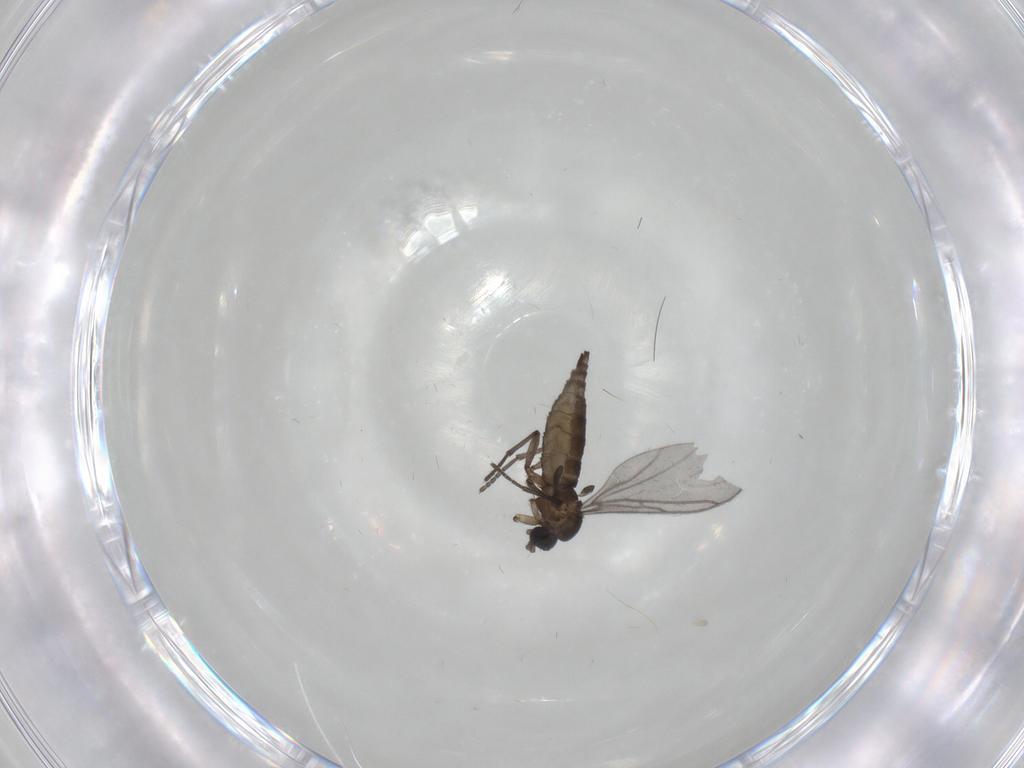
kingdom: Animalia
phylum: Arthropoda
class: Insecta
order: Diptera
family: Sciaridae
